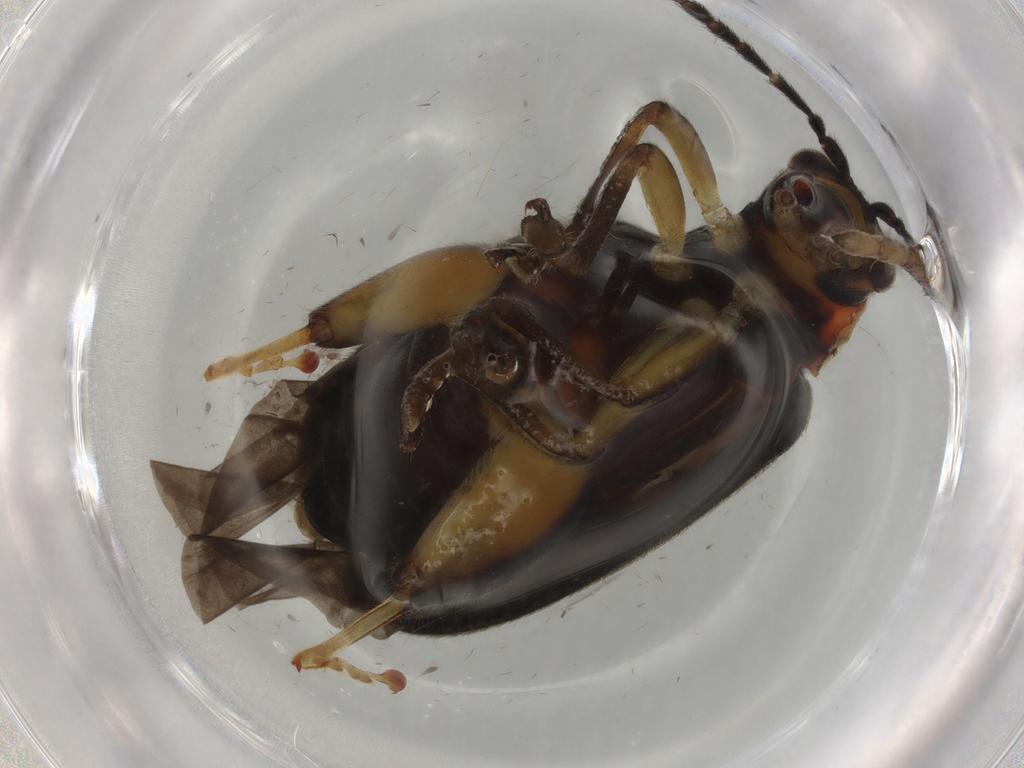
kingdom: Animalia
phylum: Arthropoda
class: Insecta
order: Coleoptera
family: Chrysomelidae
